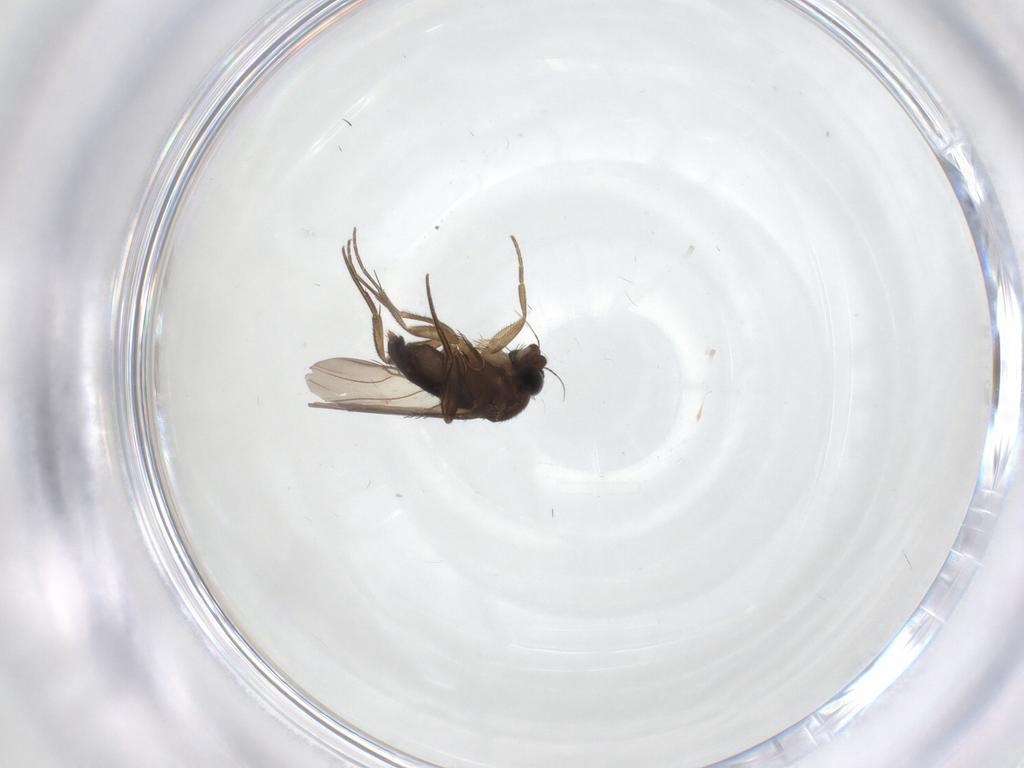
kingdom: Animalia
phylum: Arthropoda
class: Insecta
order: Diptera
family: Phoridae
